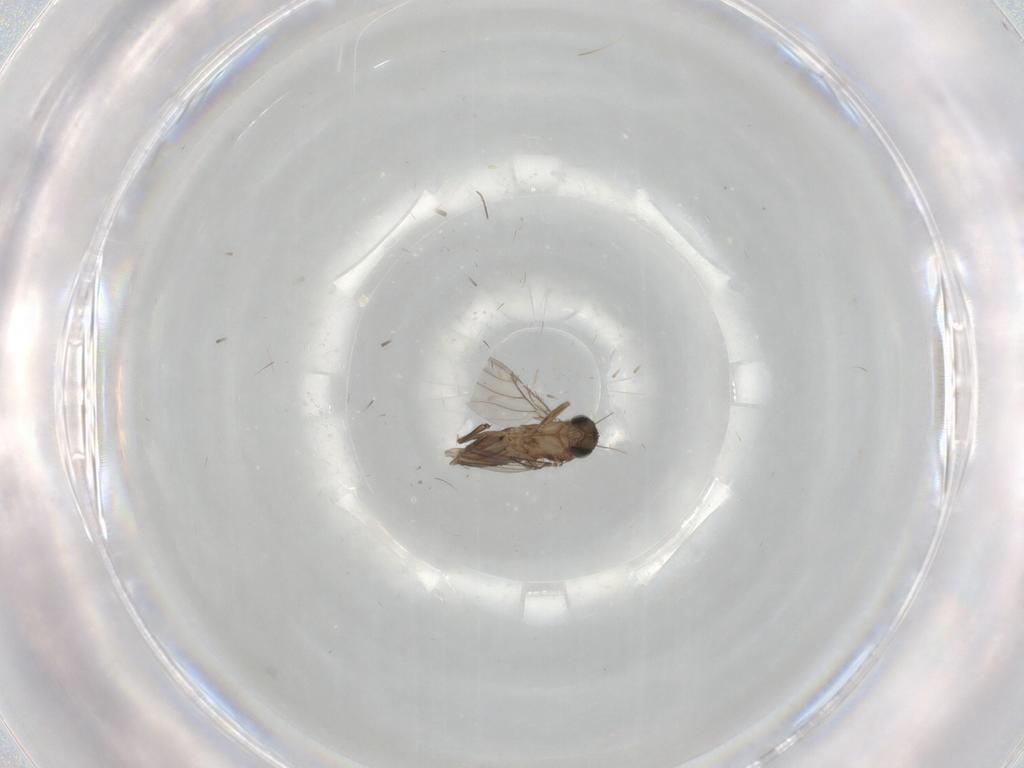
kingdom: Animalia
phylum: Arthropoda
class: Insecta
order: Diptera
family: Phoridae
